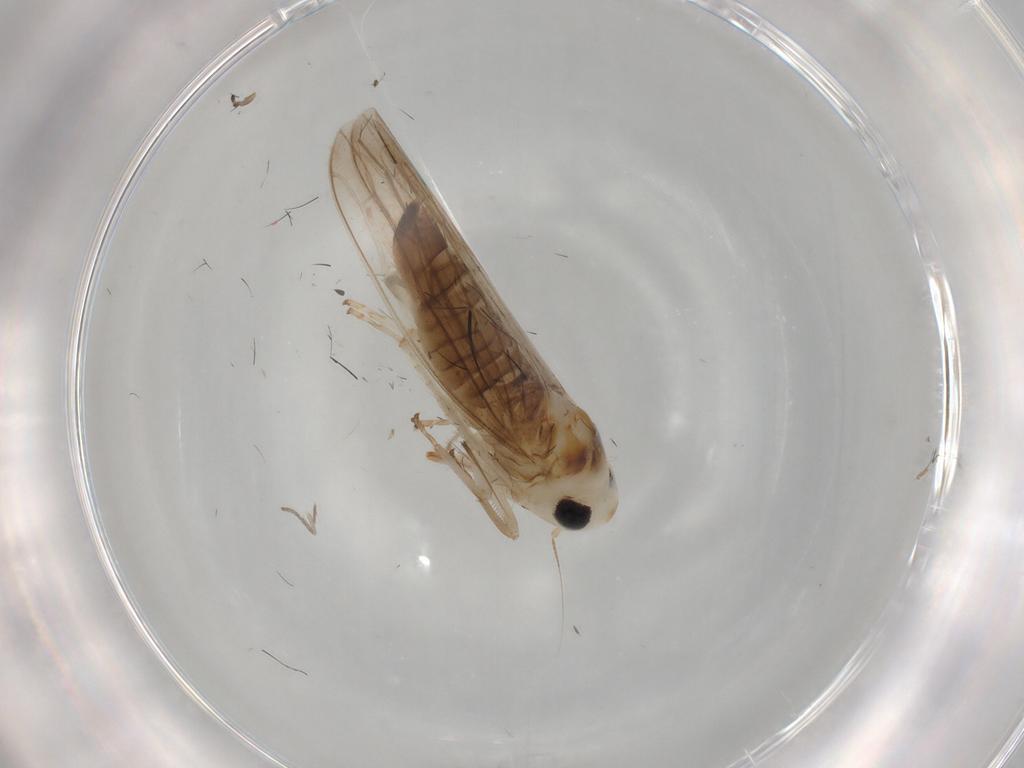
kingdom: Animalia
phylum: Arthropoda
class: Insecta
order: Hemiptera
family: Cicadellidae
